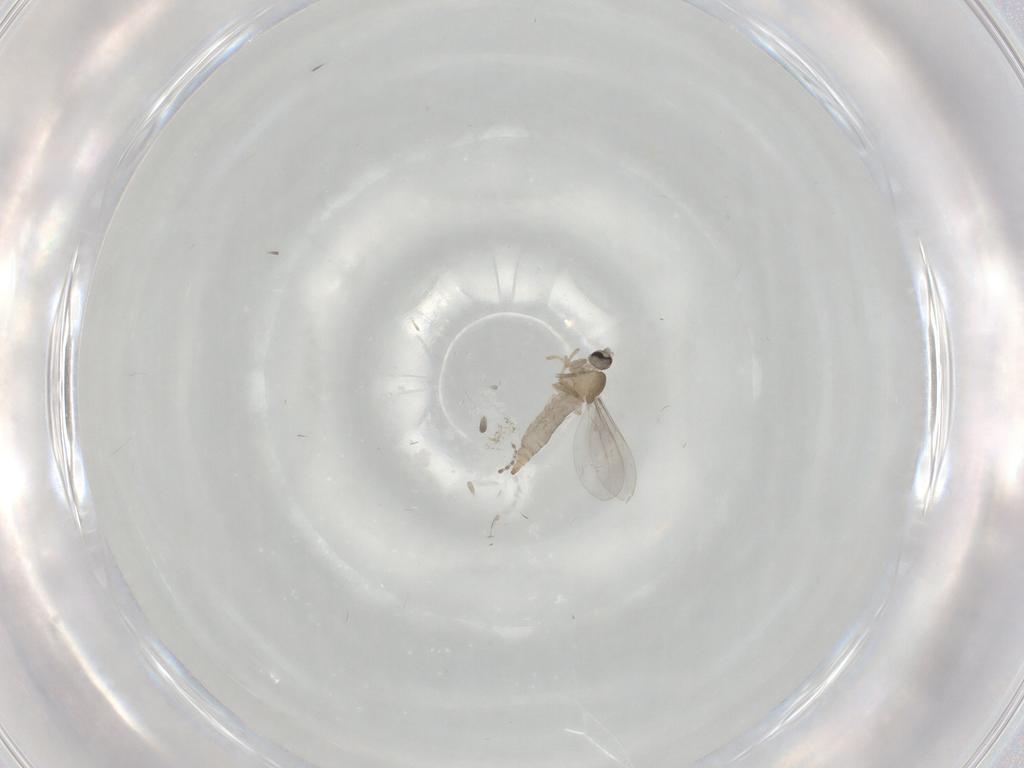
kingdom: Animalia
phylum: Arthropoda
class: Insecta
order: Diptera
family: Cecidomyiidae
